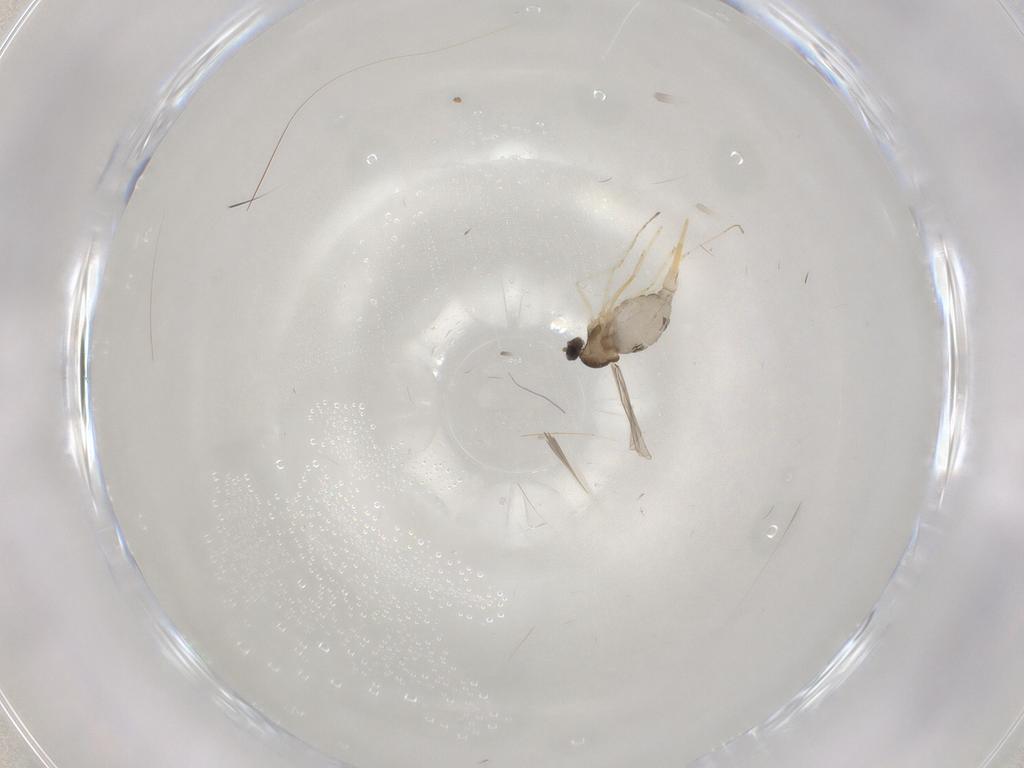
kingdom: Animalia
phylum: Arthropoda
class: Insecta
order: Diptera
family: Cecidomyiidae
